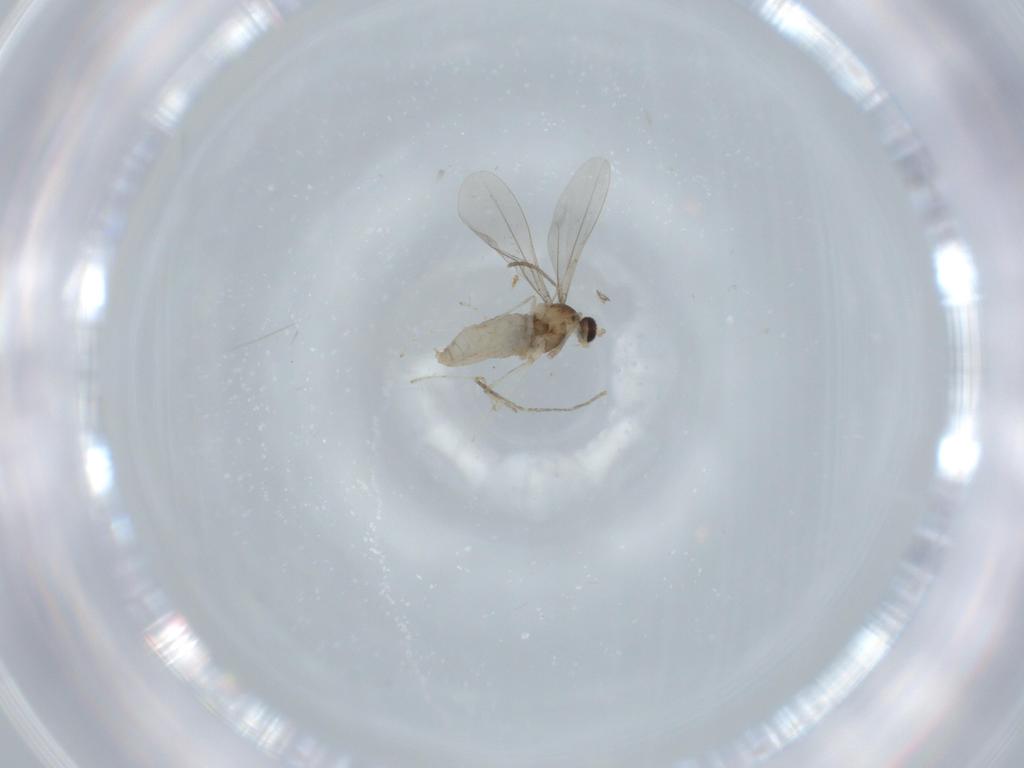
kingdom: Animalia
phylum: Arthropoda
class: Insecta
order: Diptera
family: Cecidomyiidae
